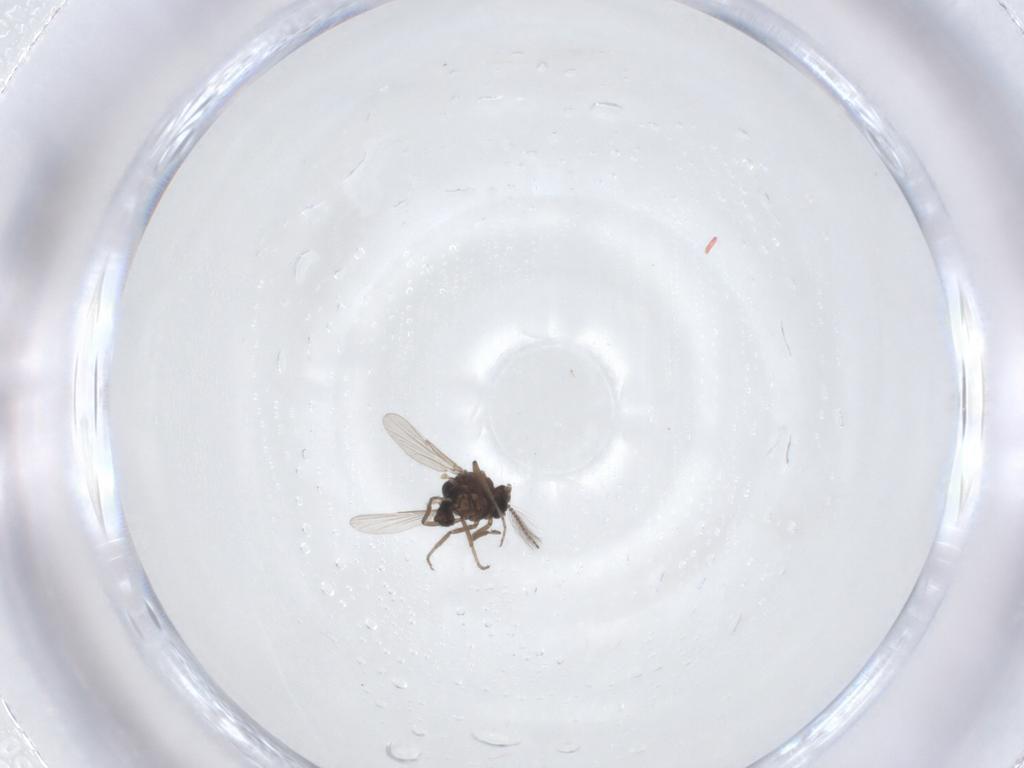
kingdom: Animalia
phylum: Arthropoda
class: Insecta
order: Diptera
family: Ceratopogonidae
